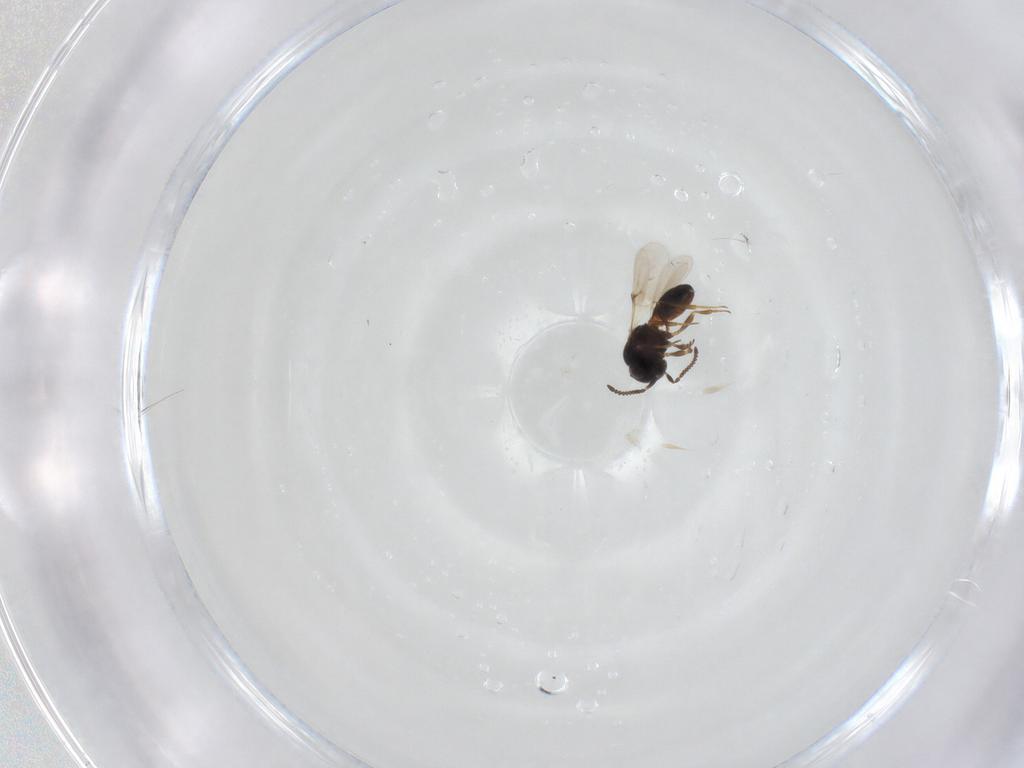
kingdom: Animalia
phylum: Arthropoda
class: Insecta
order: Hymenoptera
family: Scelionidae
